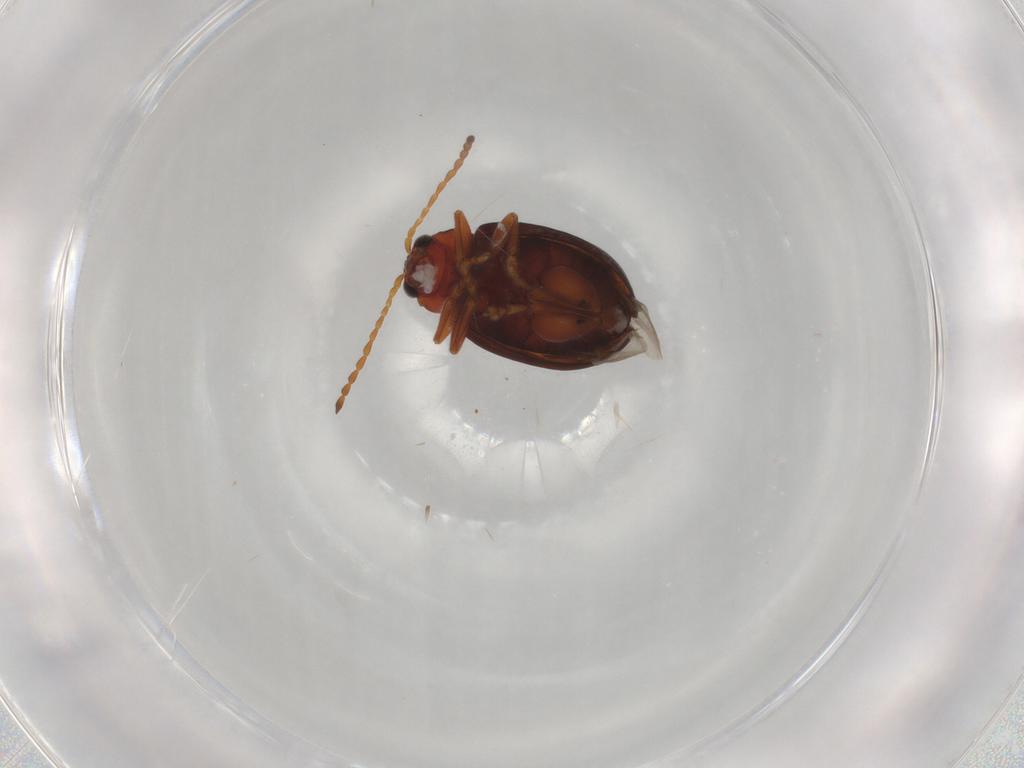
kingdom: Animalia
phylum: Arthropoda
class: Insecta
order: Coleoptera
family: Chrysomelidae
